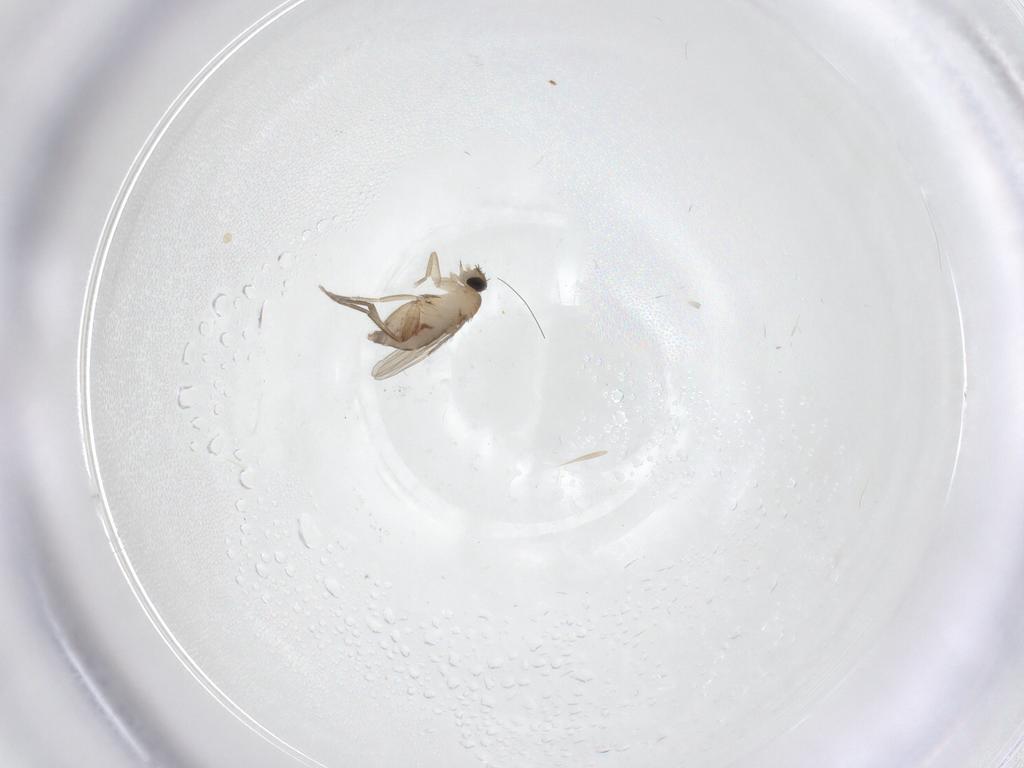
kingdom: Animalia
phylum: Arthropoda
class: Insecta
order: Diptera
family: Phoridae
